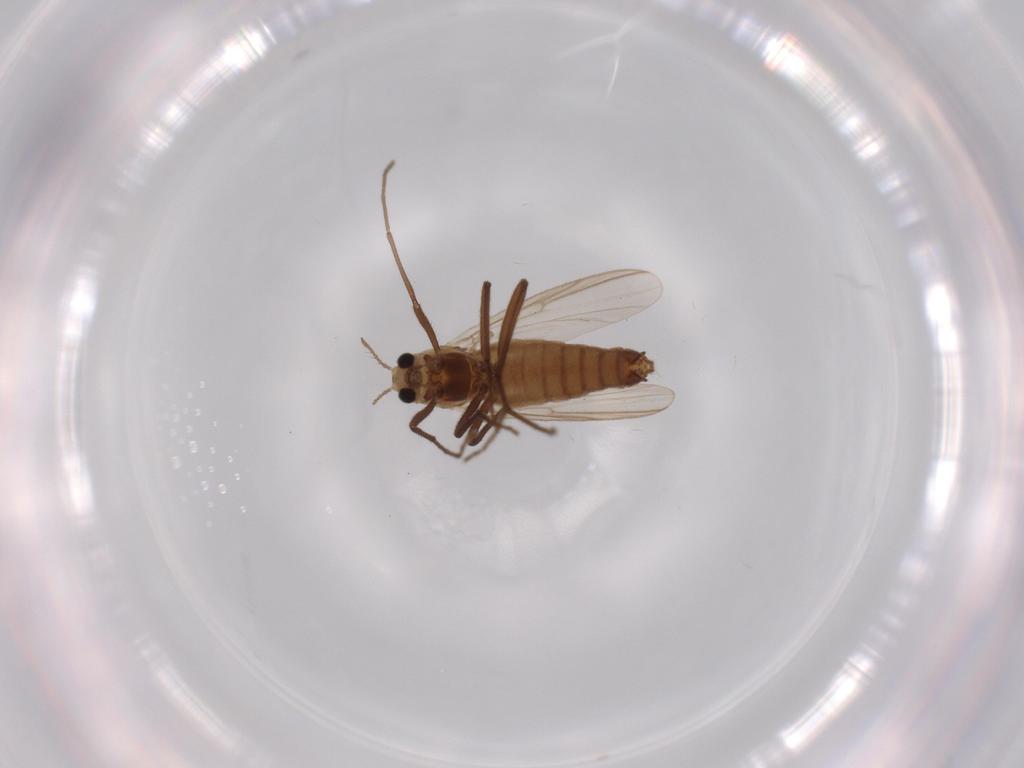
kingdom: Animalia
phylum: Arthropoda
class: Insecta
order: Diptera
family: Chironomidae
